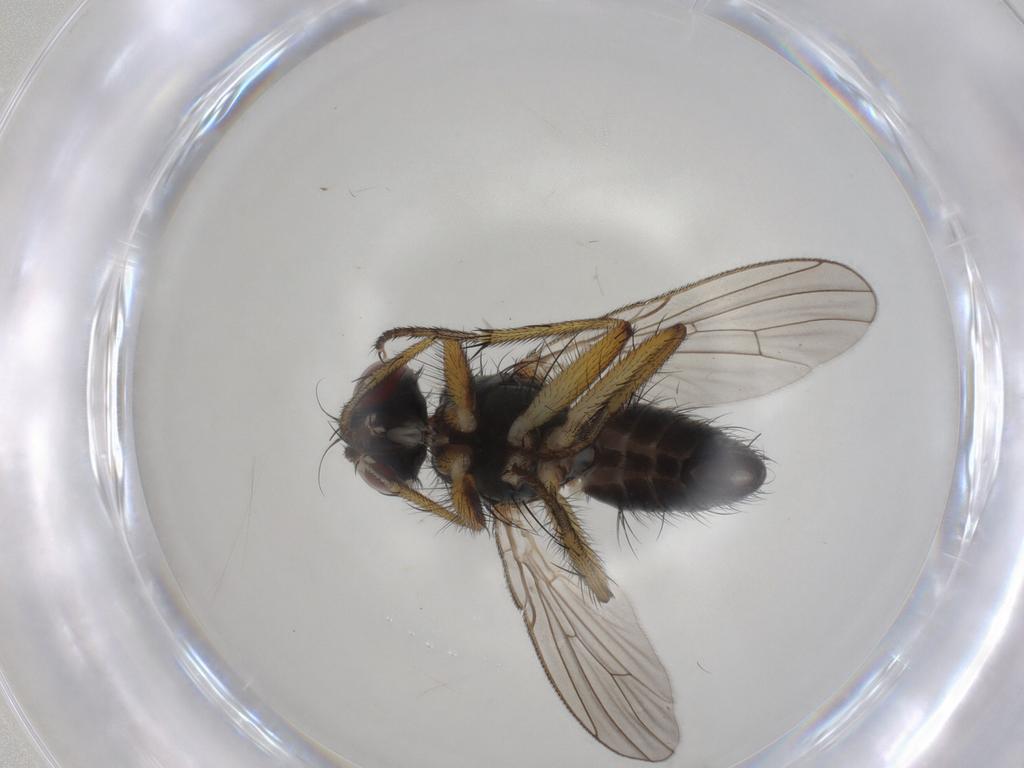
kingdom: Animalia
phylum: Arthropoda
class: Insecta
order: Diptera
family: Muscidae
